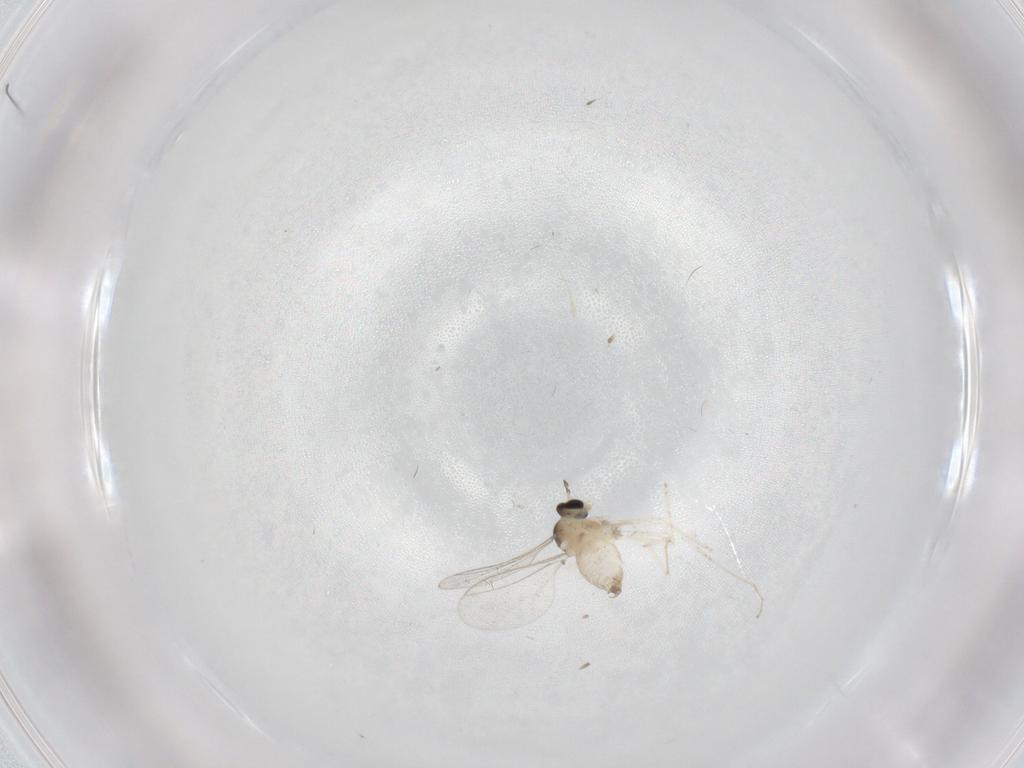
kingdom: Animalia
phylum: Arthropoda
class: Insecta
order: Diptera
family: Cecidomyiidae
